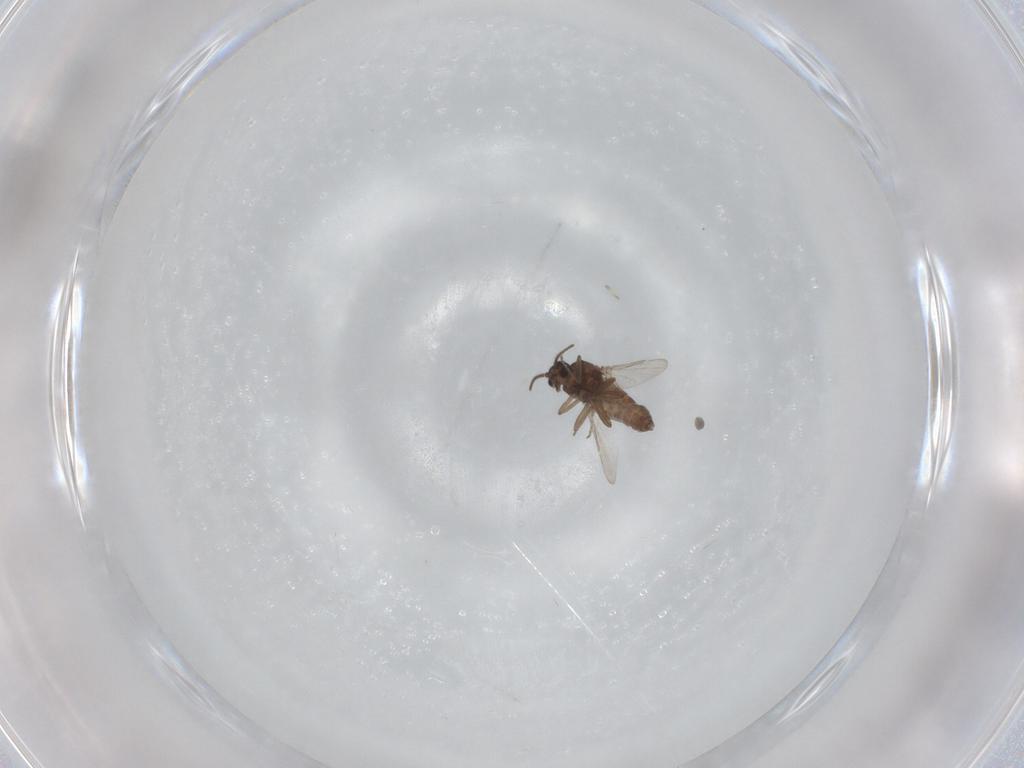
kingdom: Animalia
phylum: Arthropoda
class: Insecta
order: Diptera
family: Ceratopogonidae
